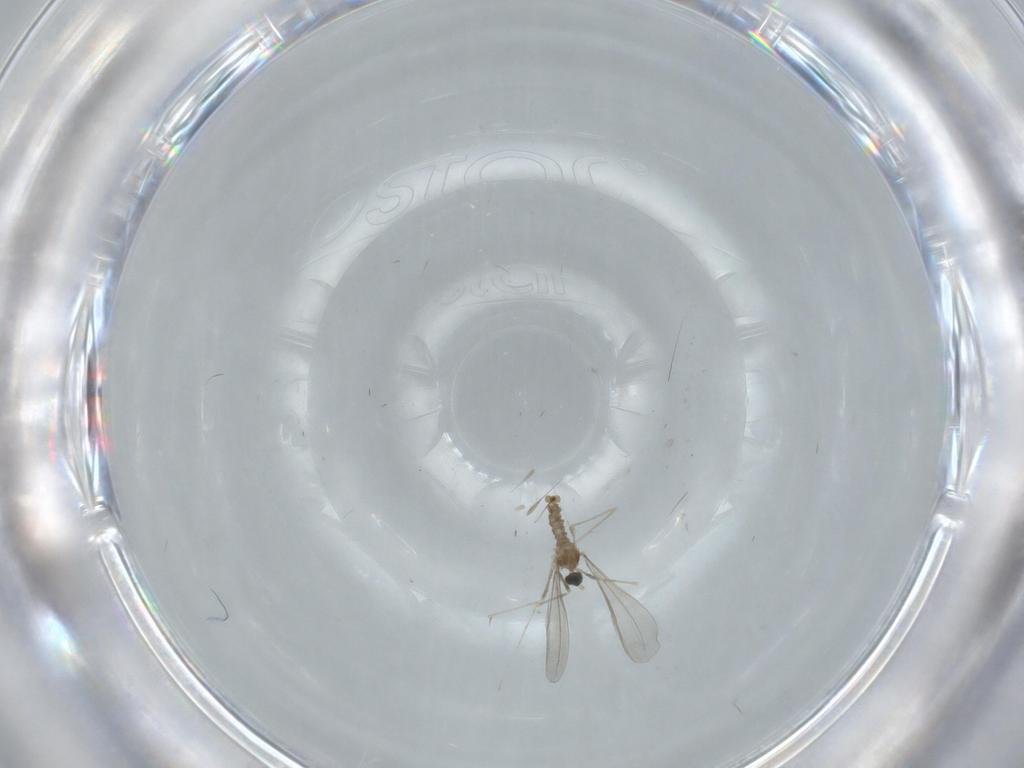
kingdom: Animalia
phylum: Arthropoda
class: Insecta
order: Diptera
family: Cecidomyiidae
